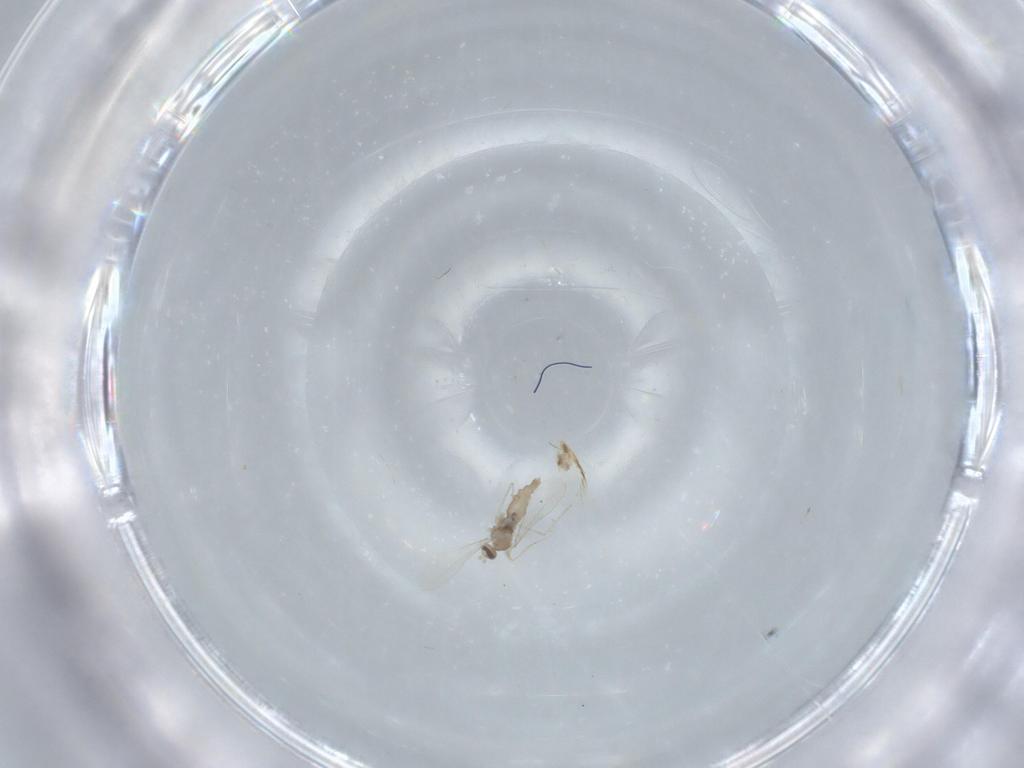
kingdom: Animalia
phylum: Arthropoda
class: Insecta
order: Diptera
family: Cecidomyiidae
